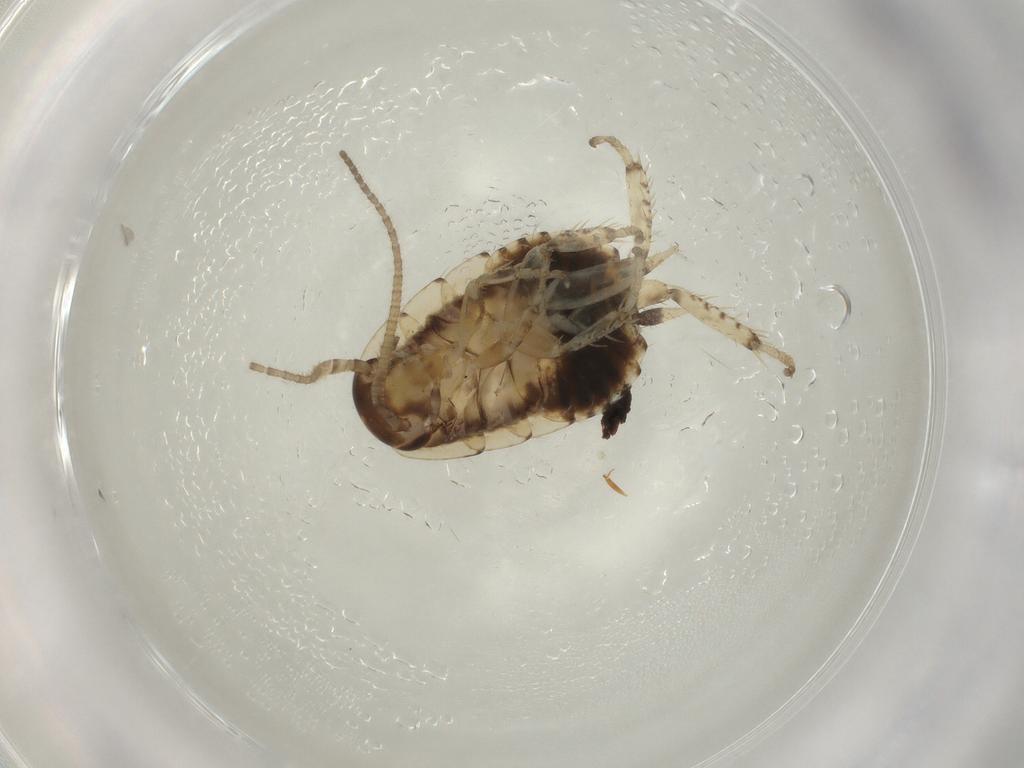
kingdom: Animalia
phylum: Arthropoda
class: Insecta
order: Blattodea
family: Blaberidae
